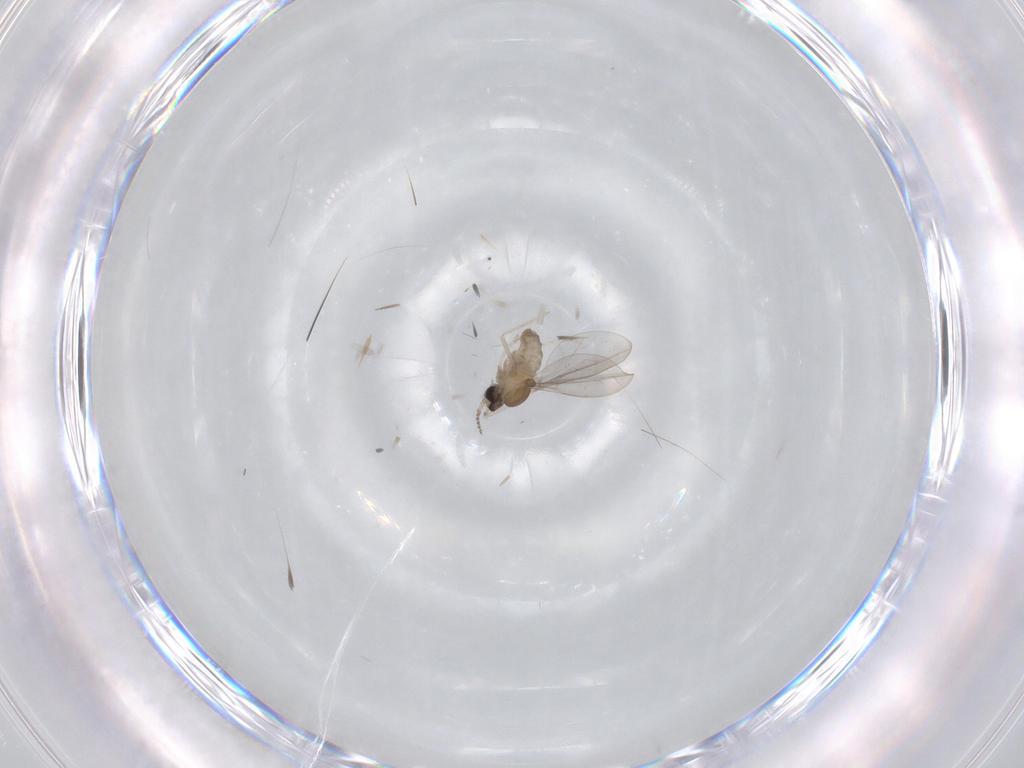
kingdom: Animalia
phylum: Arthropoda
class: Insecta
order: Diptera
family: Cecidomyiidae
